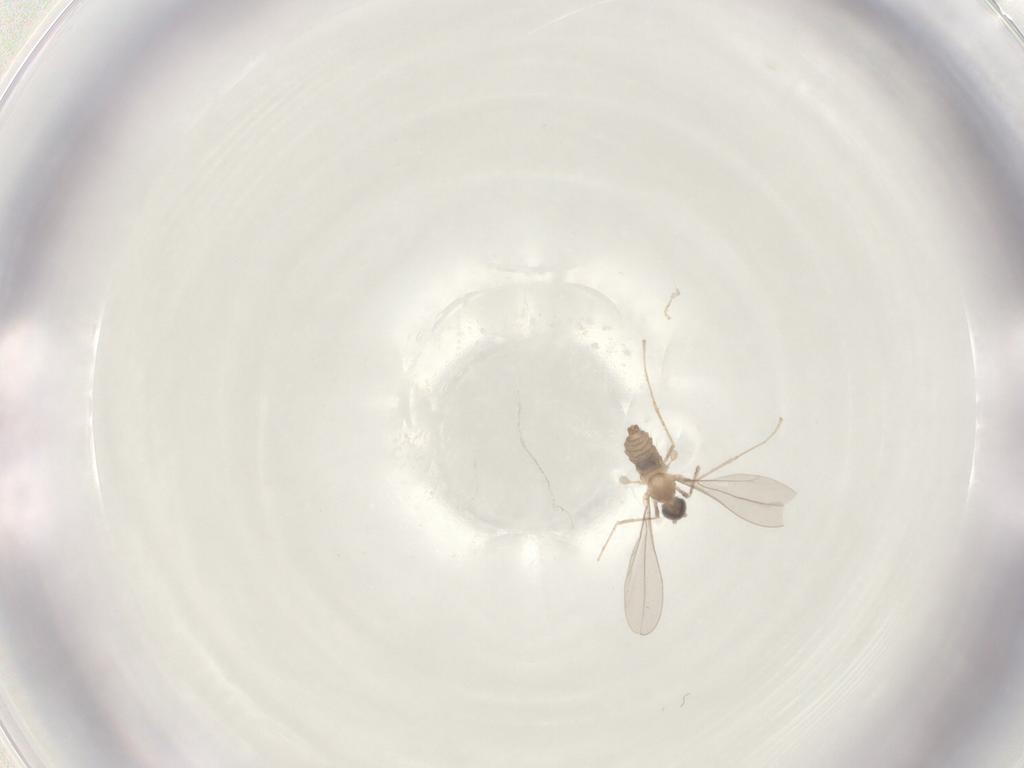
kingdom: Animalia
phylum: Arthropoda
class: Insecta
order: Diptera
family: Cecidomyiidae
